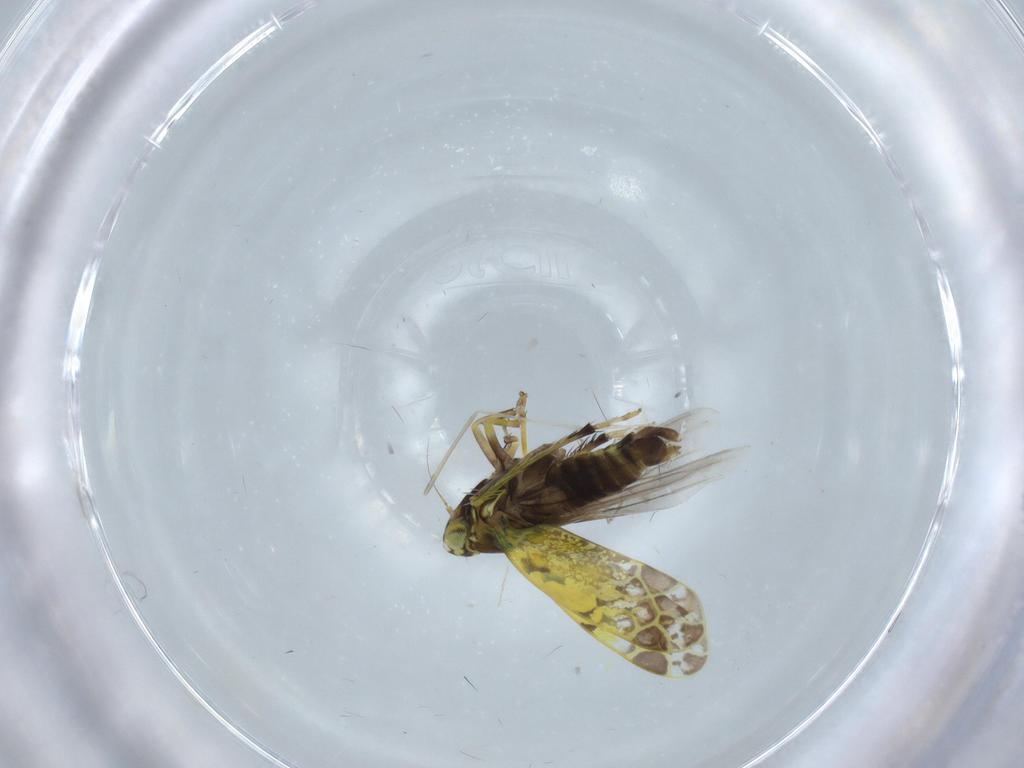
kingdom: Animalia
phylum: Arthropoda
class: Insecta
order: Hemiptera
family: Cicadellidae
